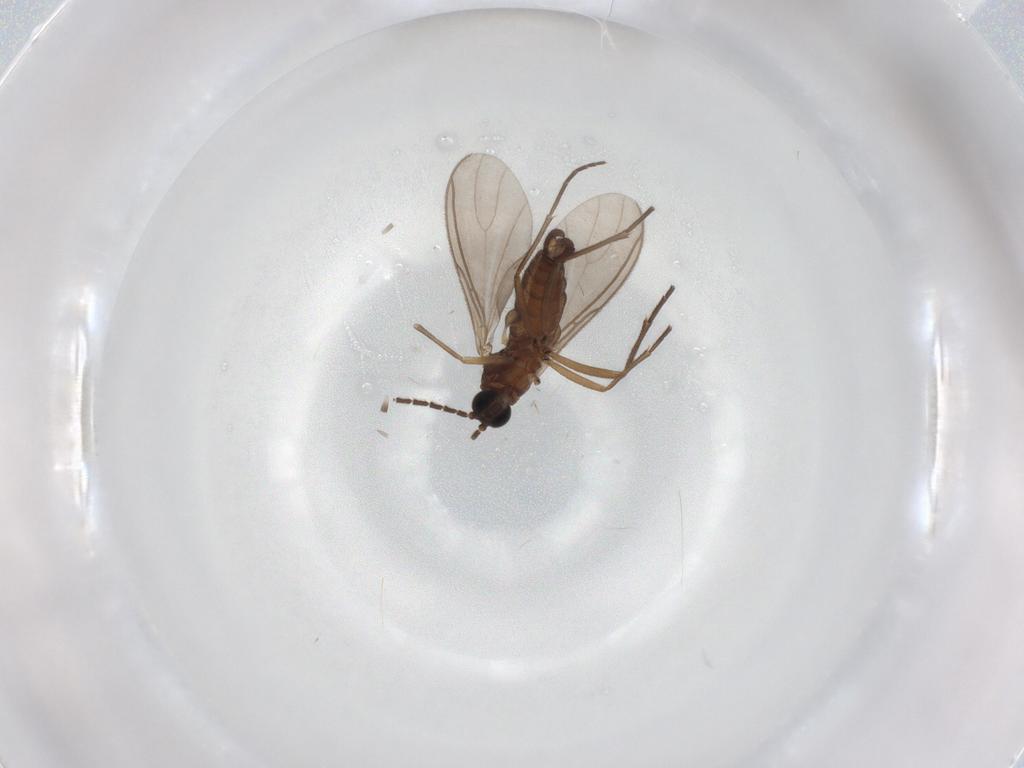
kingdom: Animalia
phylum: Arthropoda
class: Insecta
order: Diptera
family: Sciaridae
